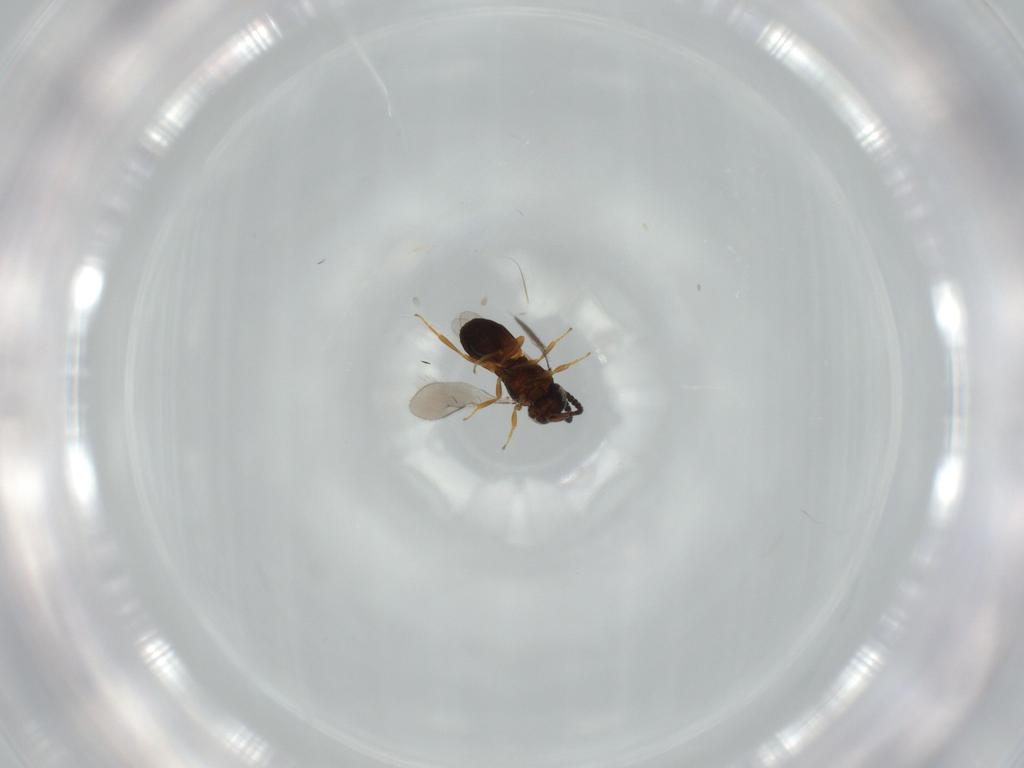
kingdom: Animalia
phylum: Arthropoda
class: Insecta
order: Hymenoptera
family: Scelionidae
